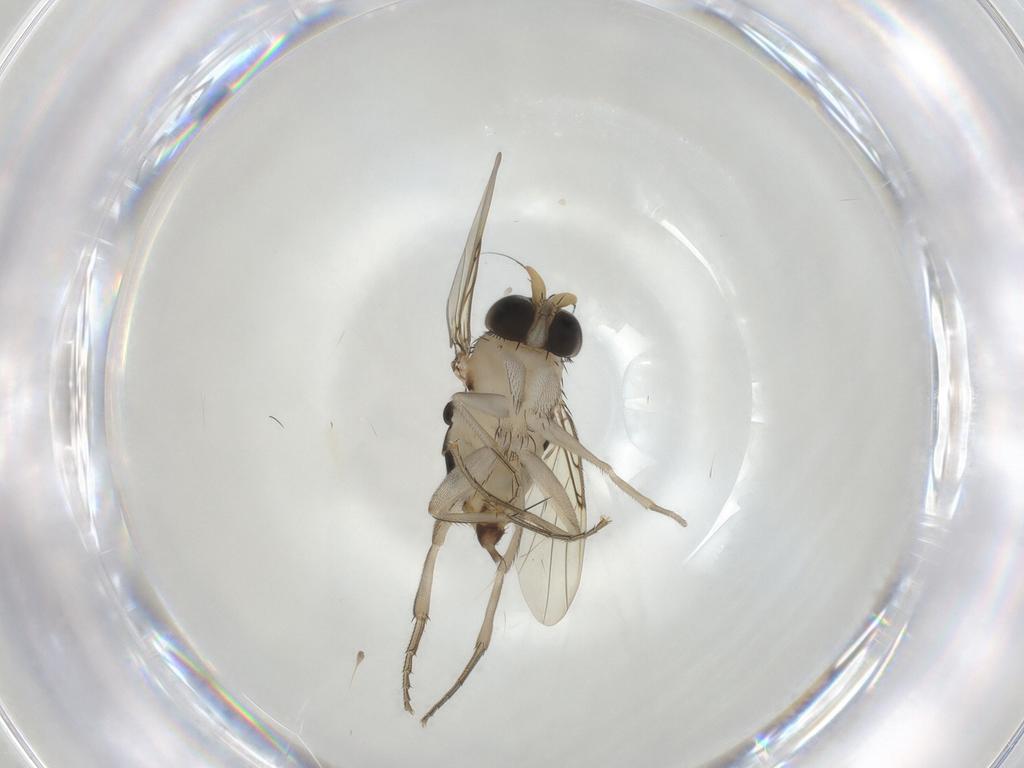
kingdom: Animalia
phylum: Arthropoda
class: Insecta
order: Diptera
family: Phoridae
